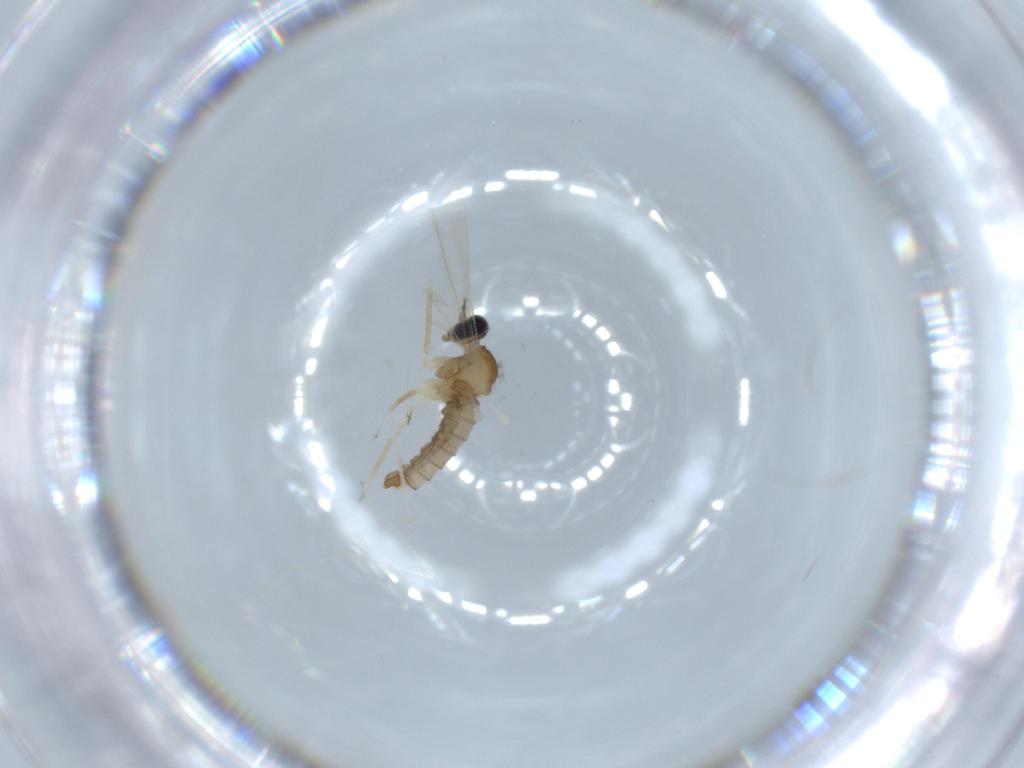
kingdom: Animalia
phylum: Arthropoda
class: Insecta
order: Diptera
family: Cecidomyiidae
